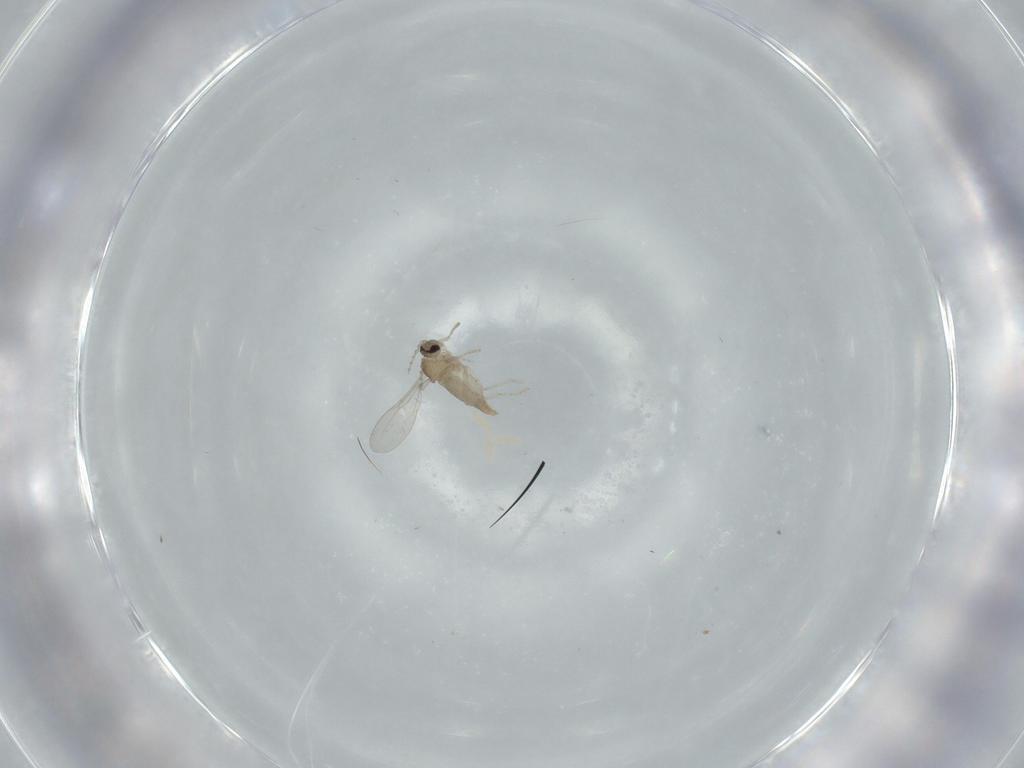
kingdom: Animalia
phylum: Arthropoda
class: Insecta
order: Diptera
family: Cecidomyiidae
